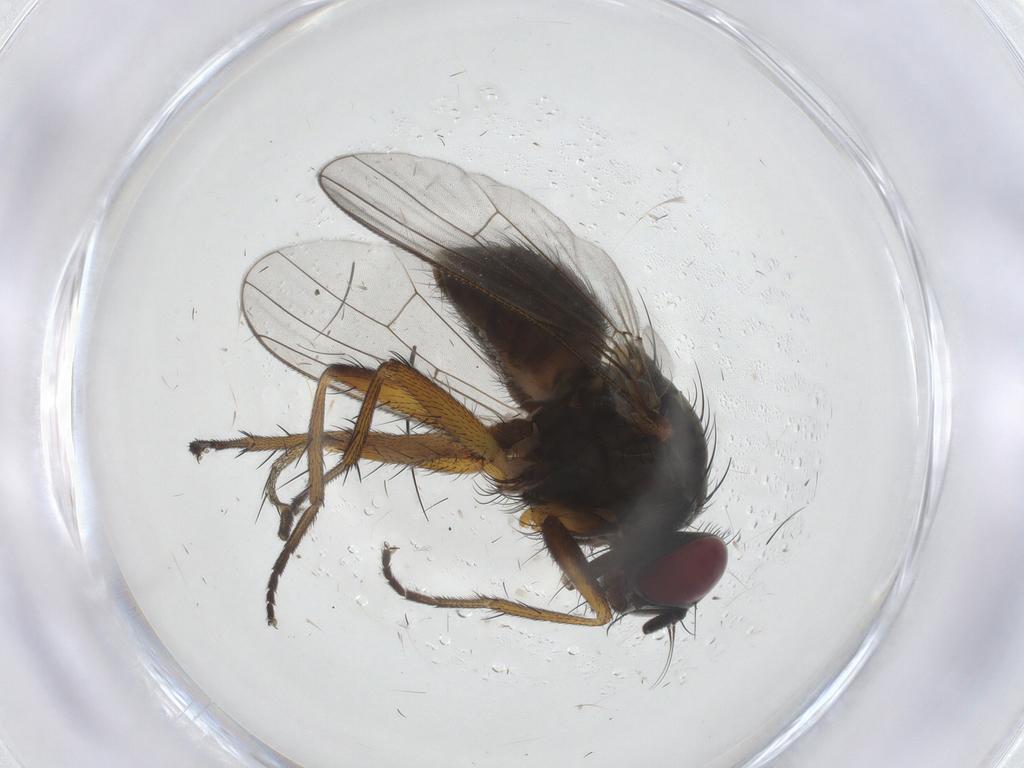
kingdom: Animalia
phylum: Arthropoda
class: Insecta
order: Diptera
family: Muscidae
